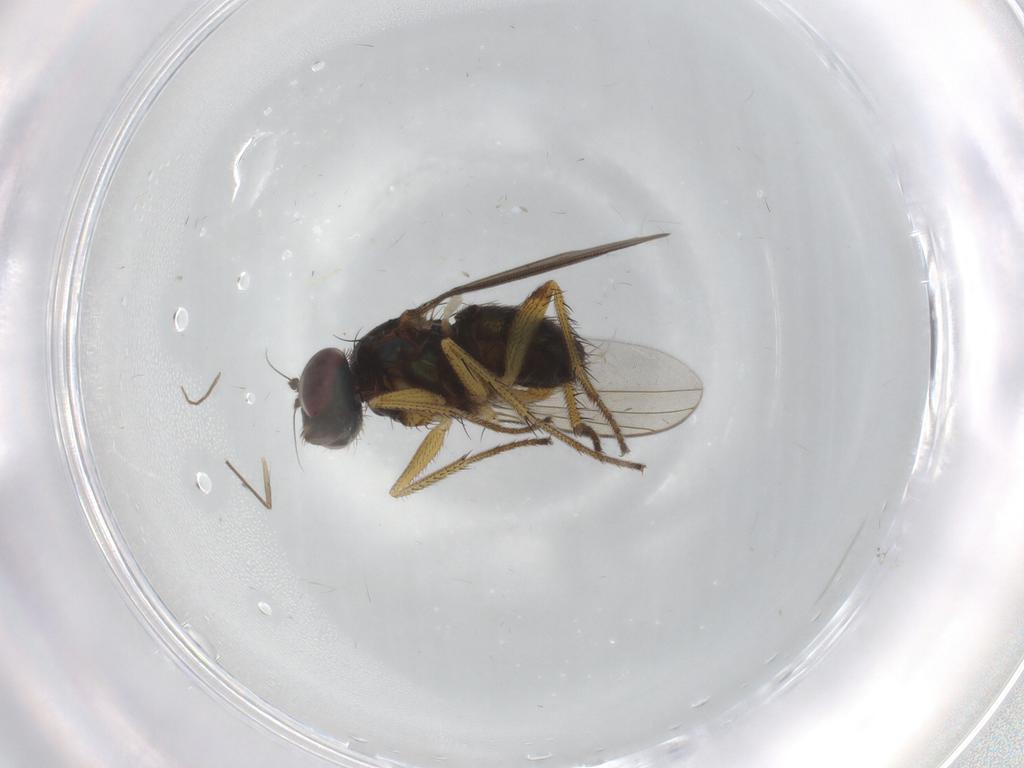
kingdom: Animalia
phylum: Arthropoda
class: Insecta
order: Diptera
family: Dolichopodidae
